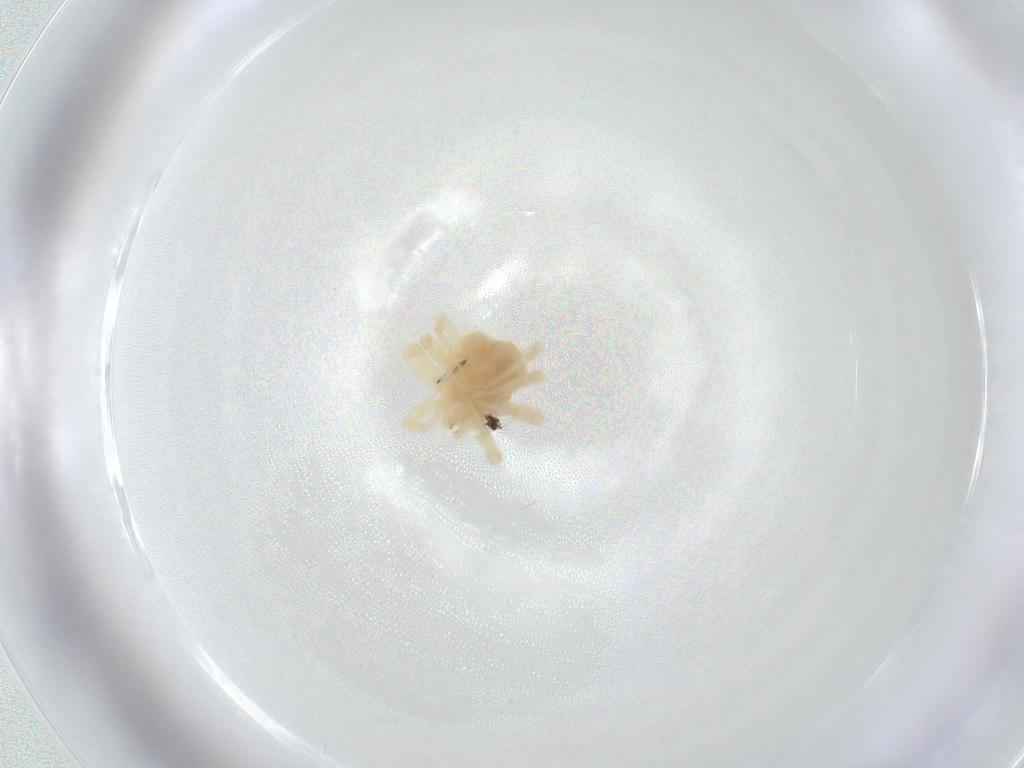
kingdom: Animalia
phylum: Arthropoda
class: Arachnida
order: Trombidiformes
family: Anystidae
